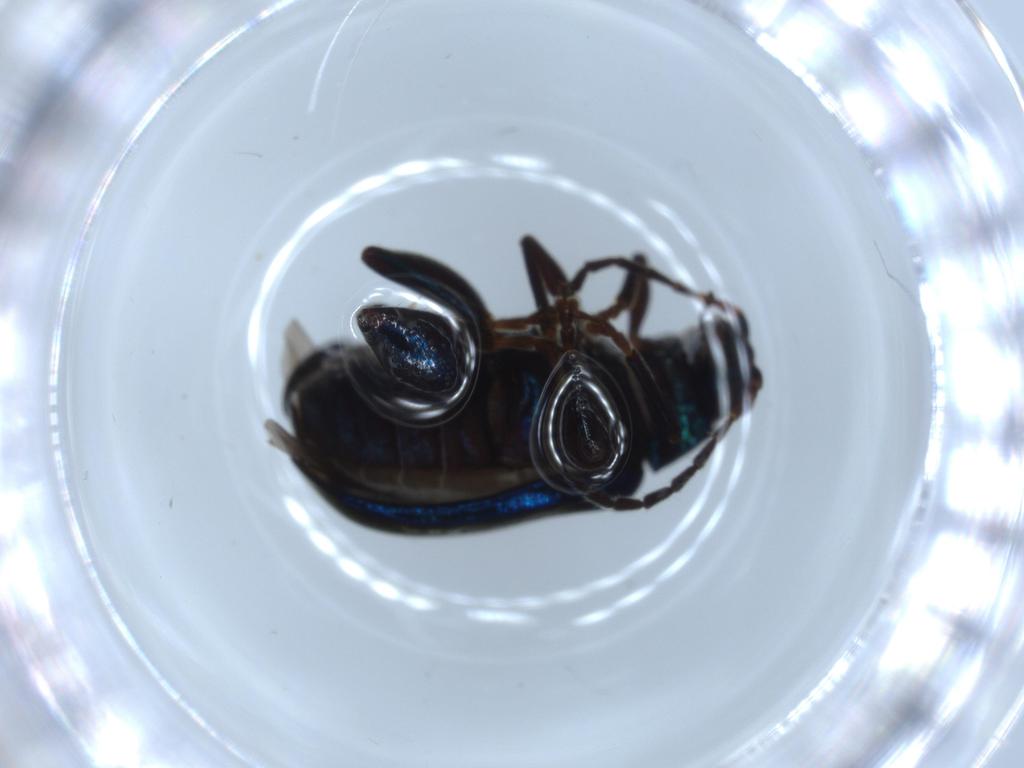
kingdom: Animalia
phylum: Arthropoda
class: Insecta
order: Coleoptera
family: Chrysomelidae
